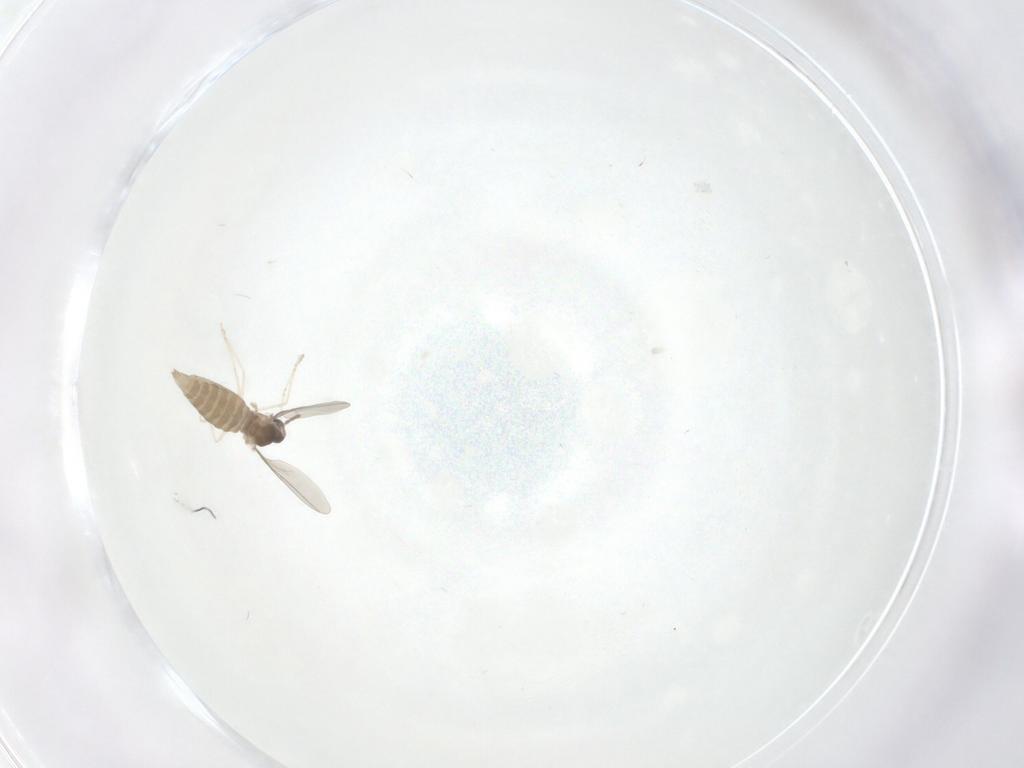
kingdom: Animalia
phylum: Arthropoda
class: Insecta
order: Diptera
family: Cecidomyiidae
